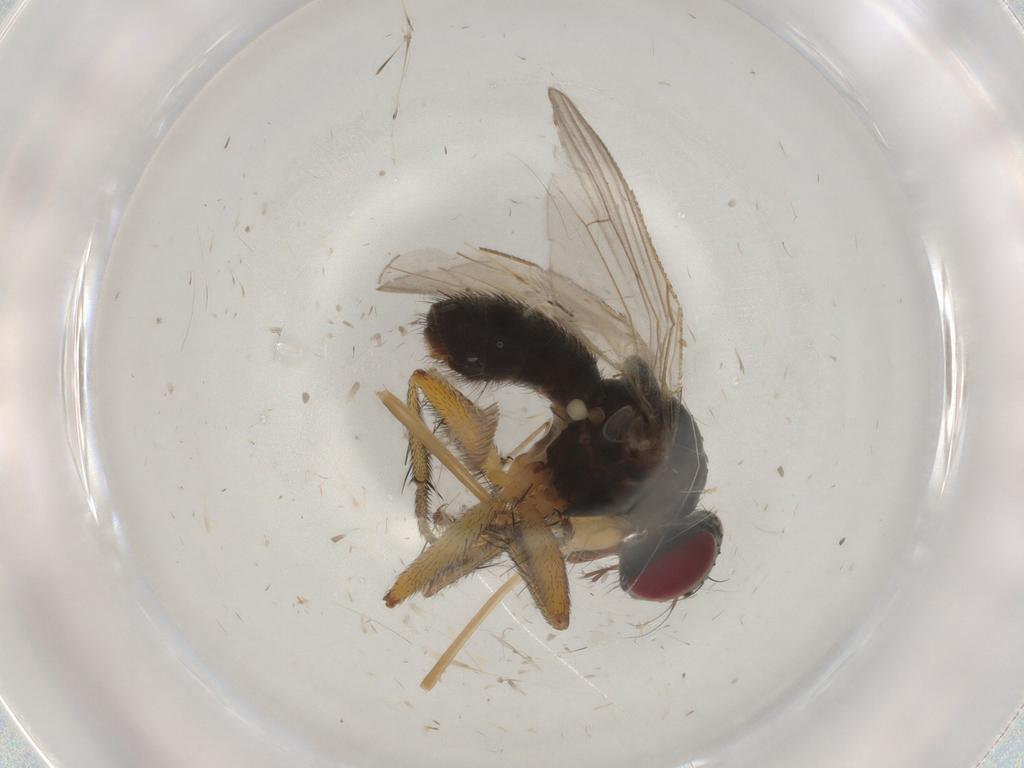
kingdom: Animalia
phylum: Arthropoda
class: Insecta
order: Diptera
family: Muscidae
